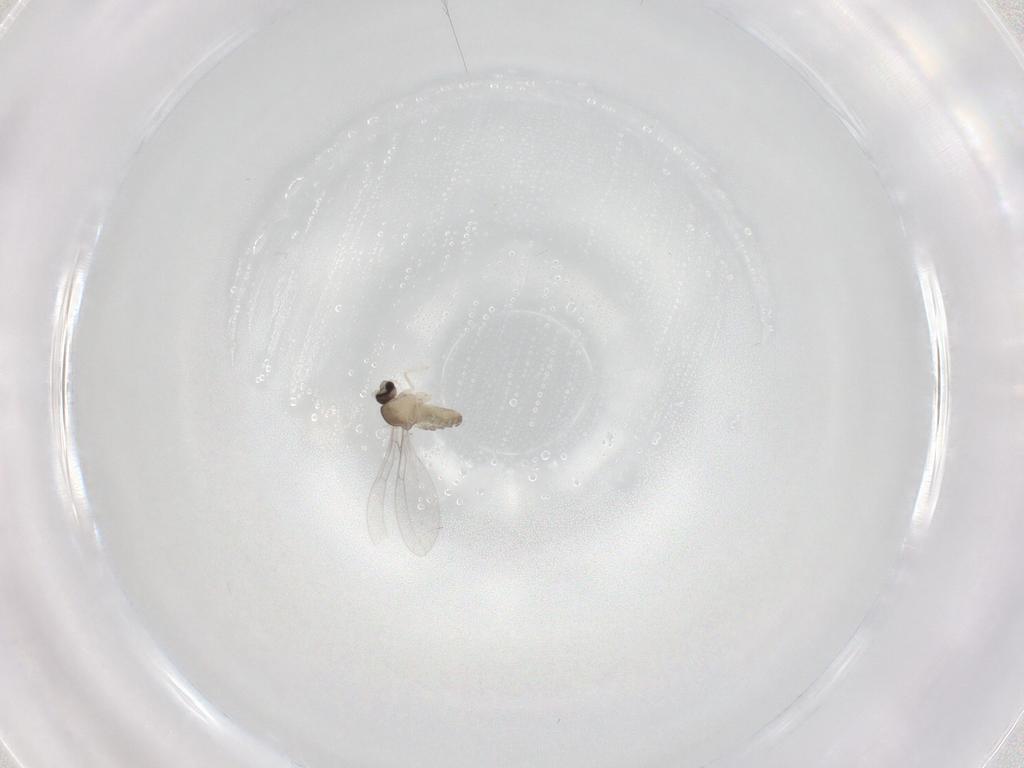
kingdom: Animalia
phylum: Arthropoda
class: Insecta
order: Diptera
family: Cecidomyiidae
